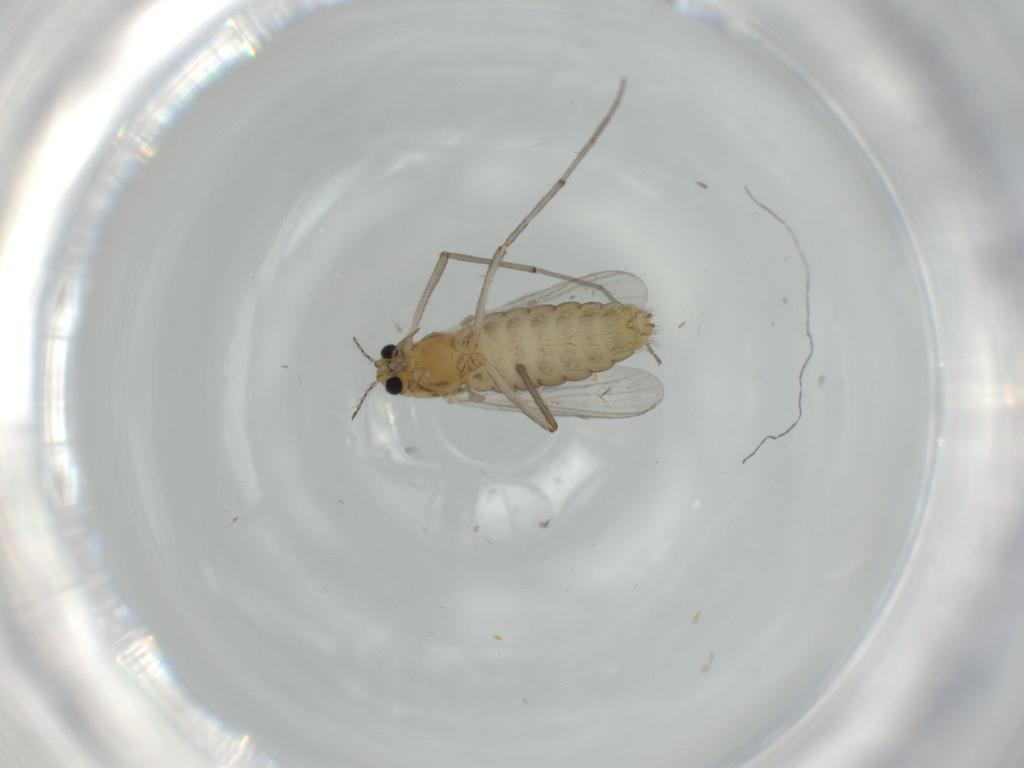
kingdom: Animalia
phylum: Arthropoda
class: Insecta
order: Diptera
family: Chironomidae
